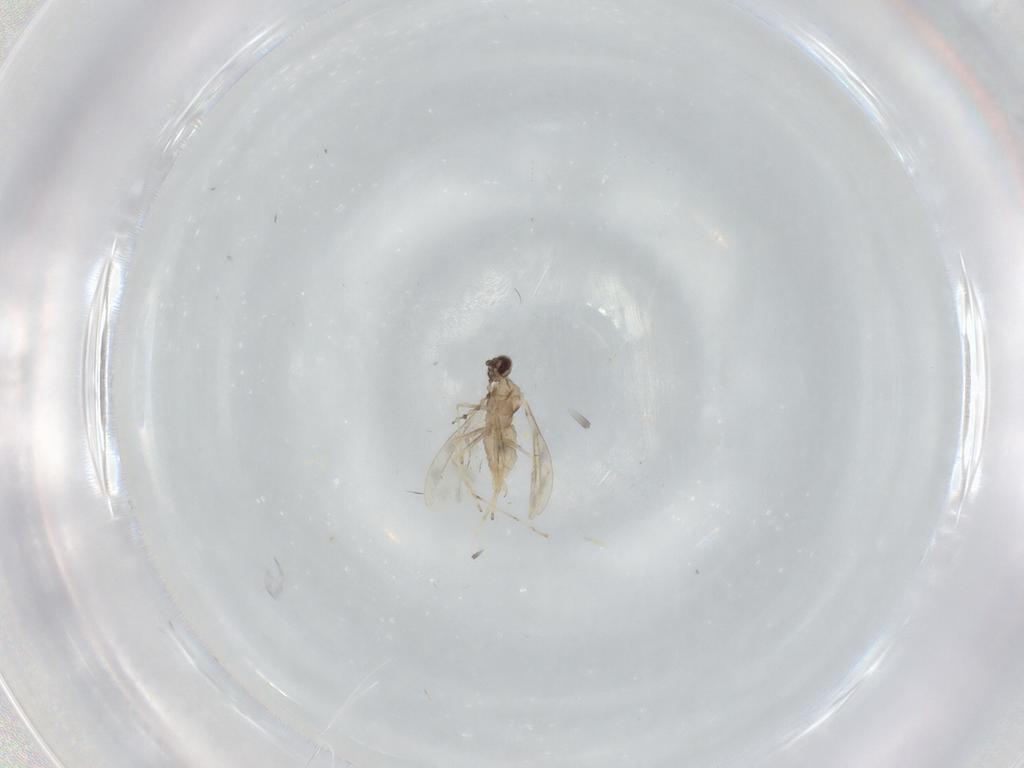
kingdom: Animalia
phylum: Arthropoda
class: Insecta
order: Diptera
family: Cecidomyiidae
